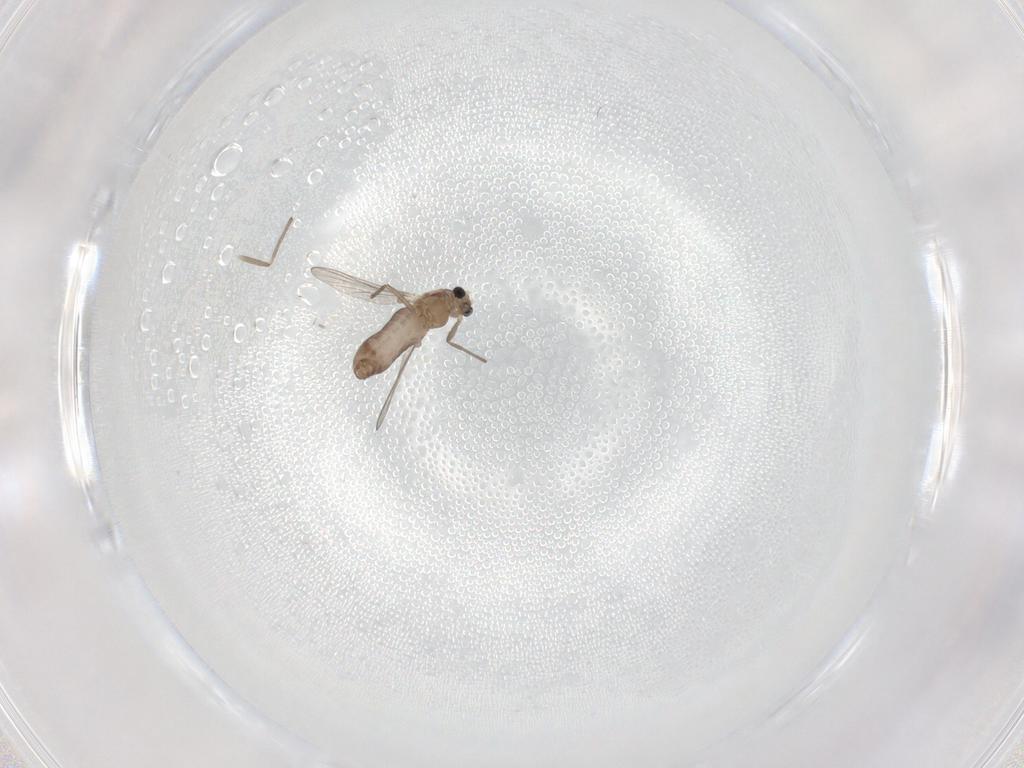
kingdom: Animalia
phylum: Arthropoda
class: Insecta
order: Diptera
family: Chironomidae
